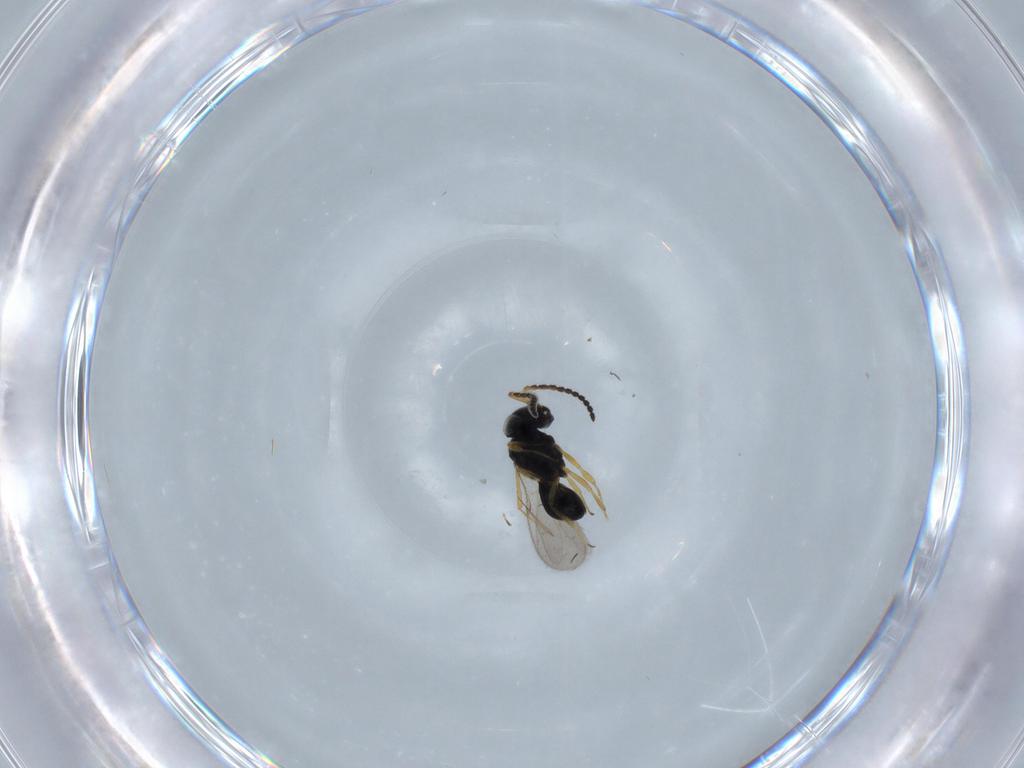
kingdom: Animalia
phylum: Arthropoda
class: Insecta
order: Hymenoptera
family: Scelionidae
